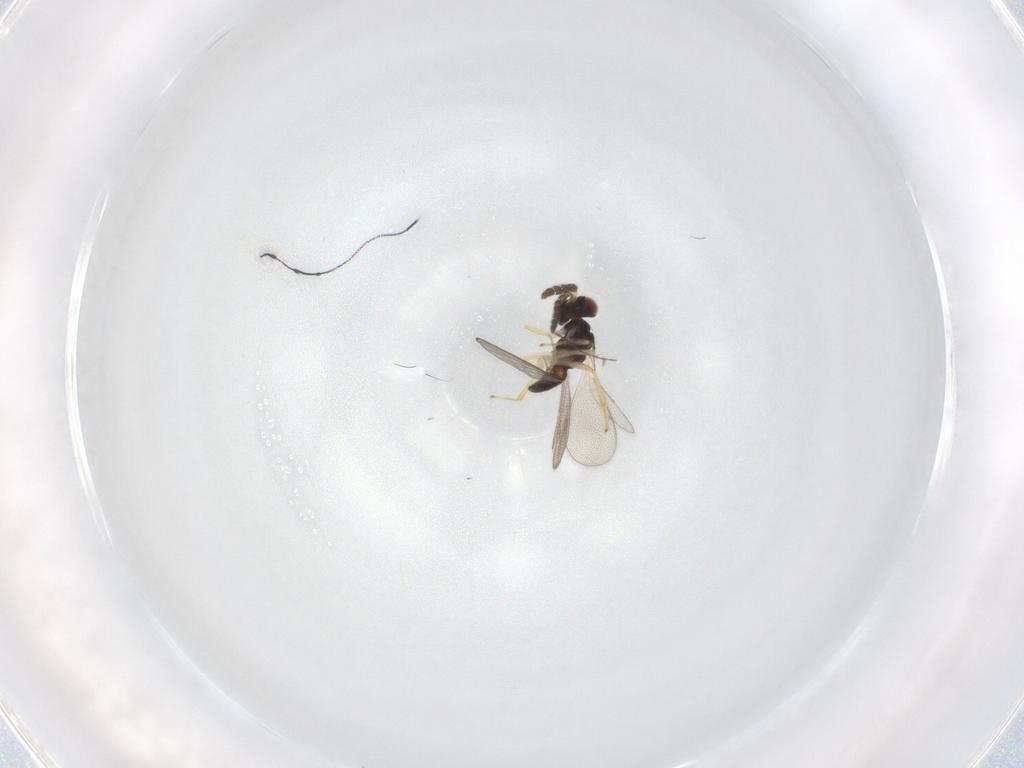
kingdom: Animalia
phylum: Arthropoda
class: Insecta
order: Hymenoptera
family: Eulophidae
